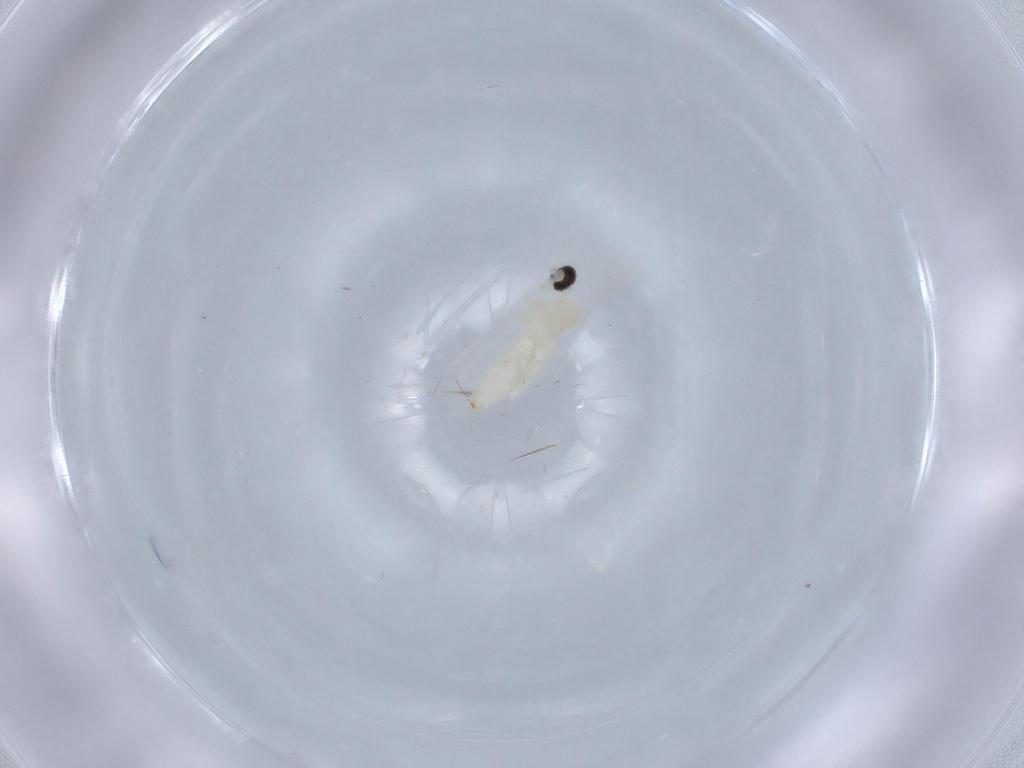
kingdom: Animalia
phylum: Arthropoda
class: Insecta
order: Diptera
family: Cecidomyiidae
